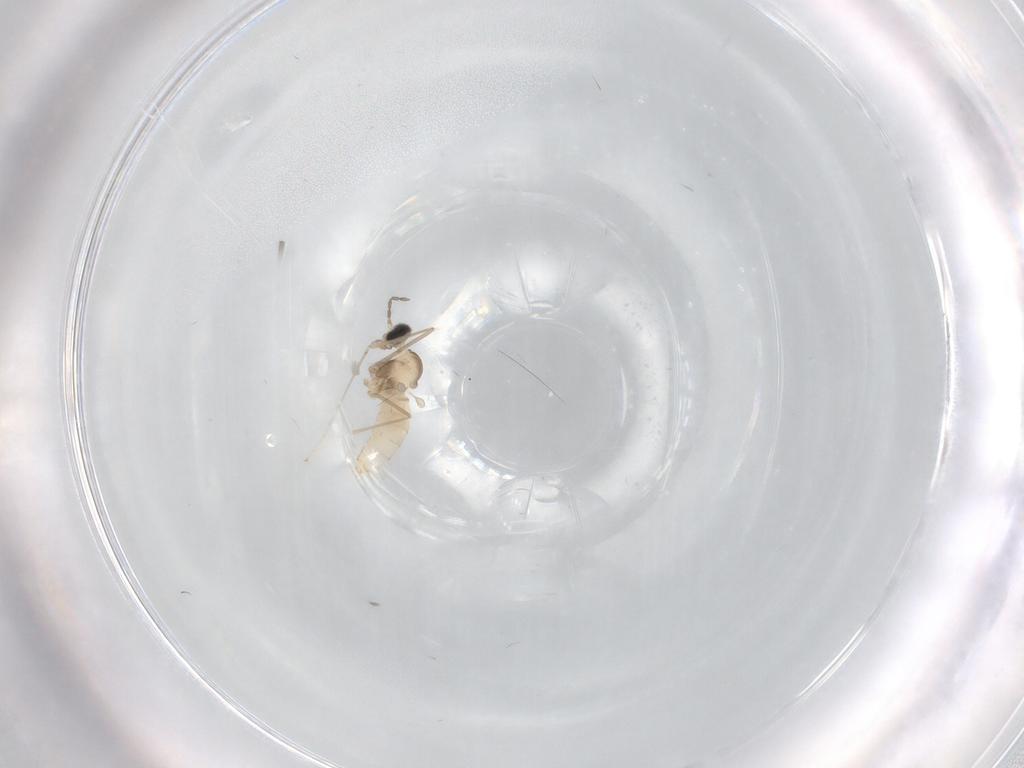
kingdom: Animalia
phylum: Arthropoda
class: Insecta
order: Diptera
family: Cecidomyiidae
